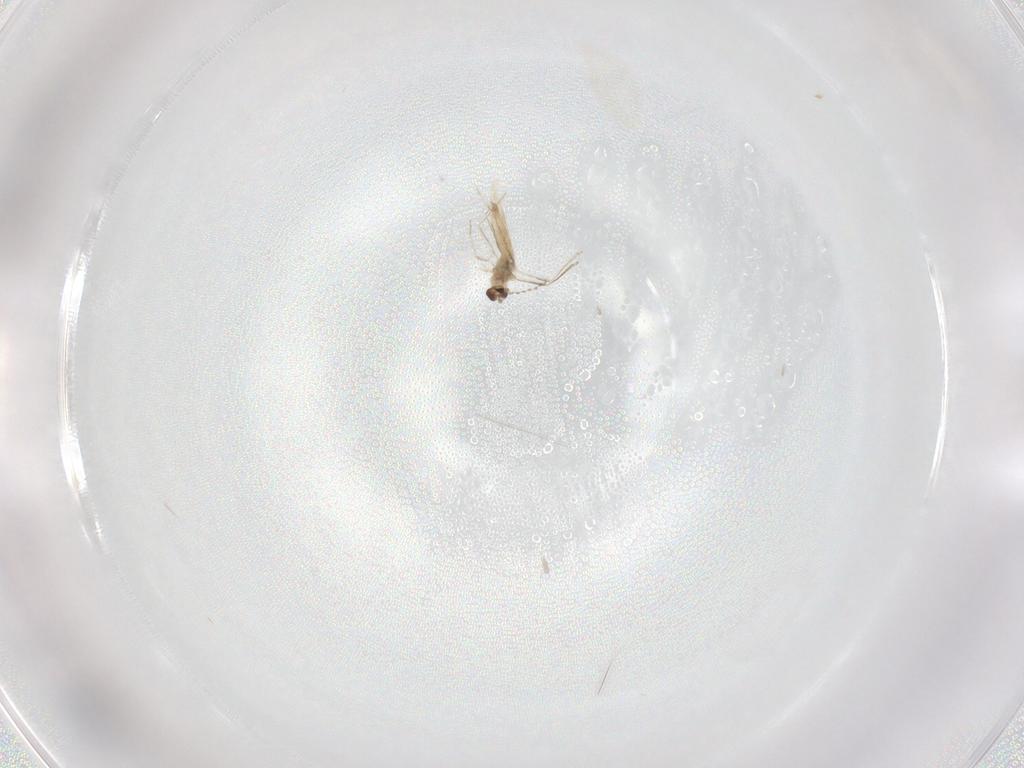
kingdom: Animalia
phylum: Arthropoda
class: Insecta
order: Diptera
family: Cecidomyiidae
